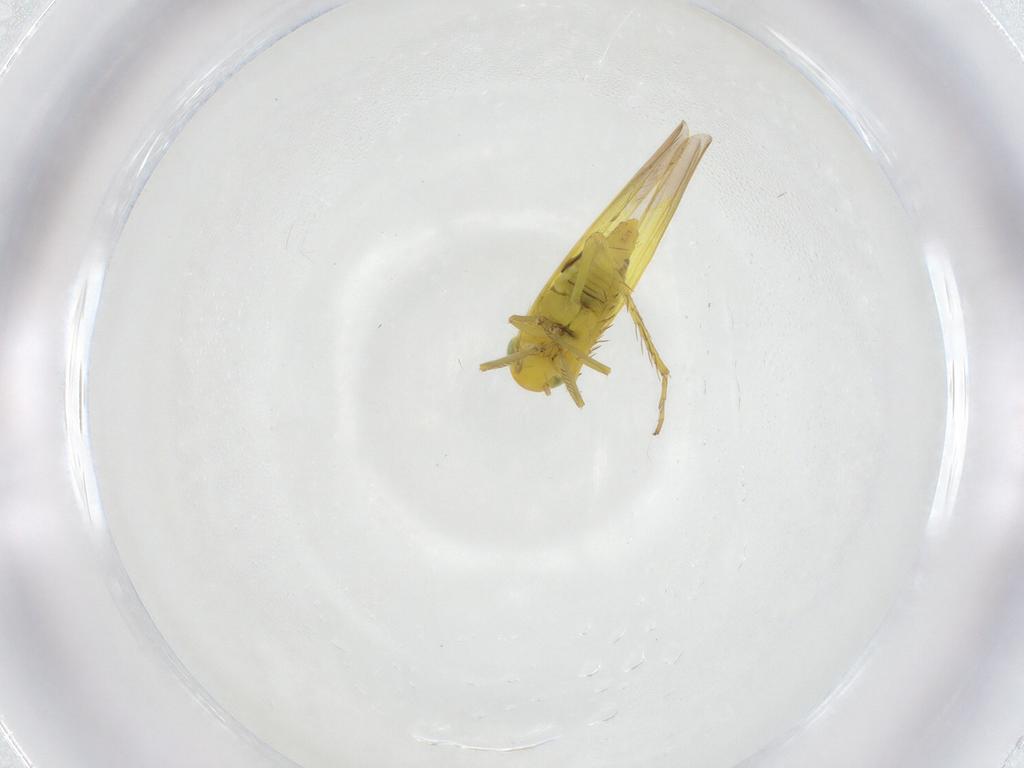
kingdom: Animalia
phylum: Arthropoda
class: Insecta
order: Hemiptera
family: Cicadellidae
